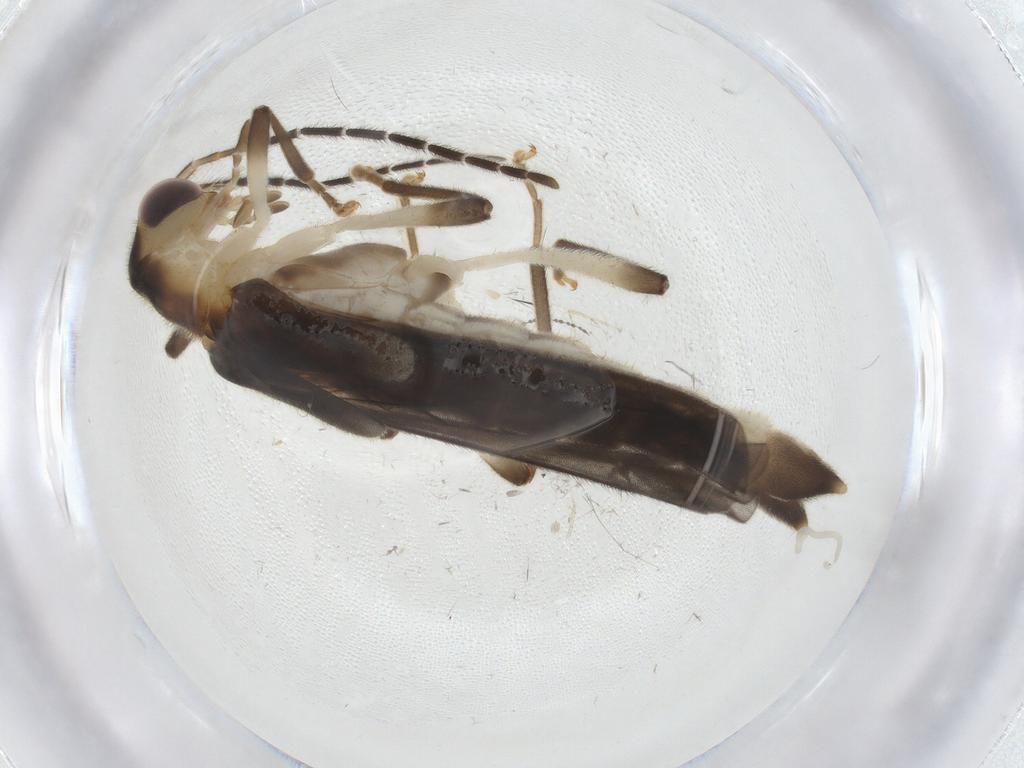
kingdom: Animalia
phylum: Arthropoda
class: Insecta
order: Coleoptera
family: Cantharidae
